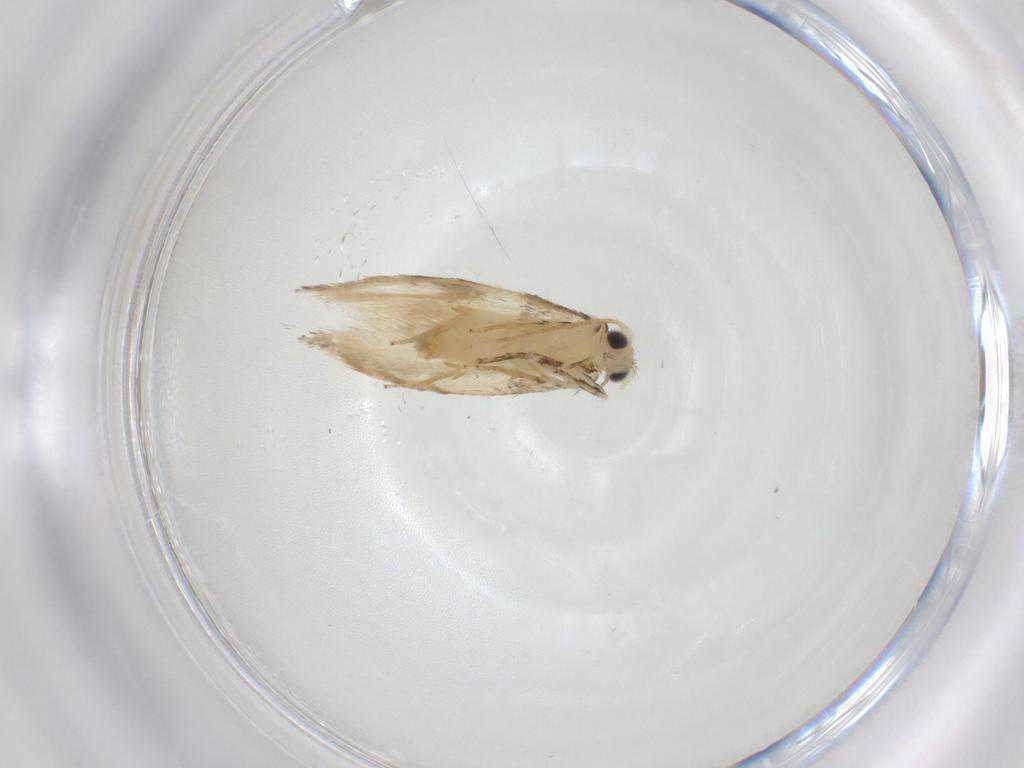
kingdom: Animalia
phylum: Arthropoda
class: Insecta
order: Lepidoptera
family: Tineidae
